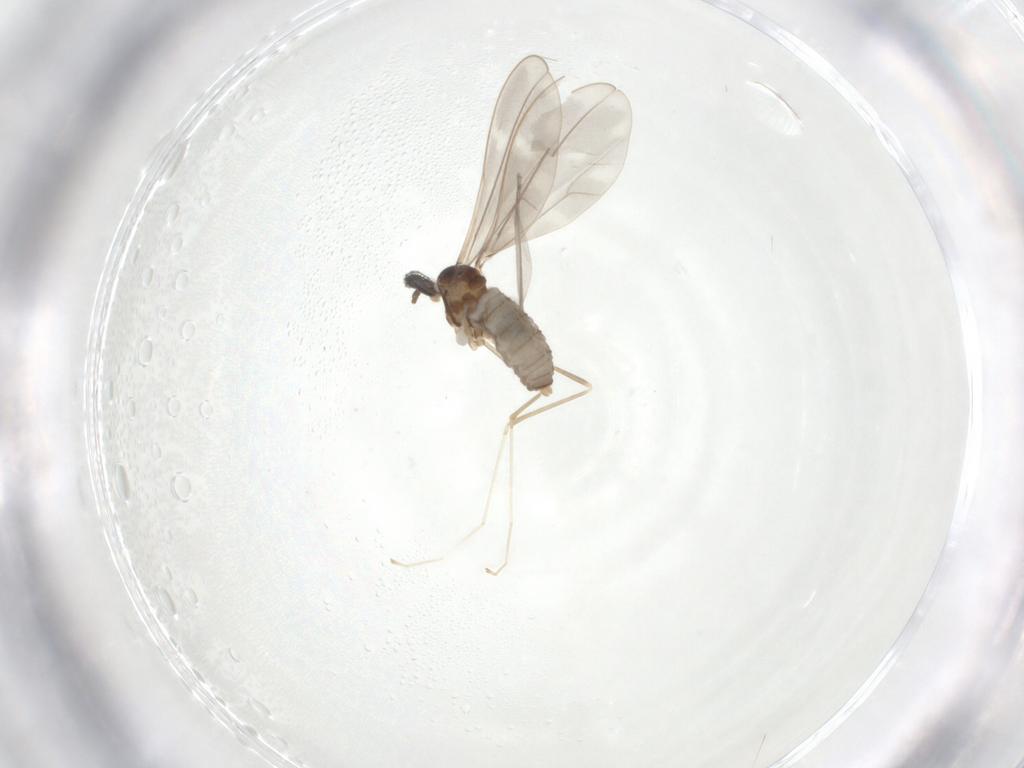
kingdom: Animalia
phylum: Arthropoda
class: Insecta
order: Diptera
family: Cecidomyiidae
